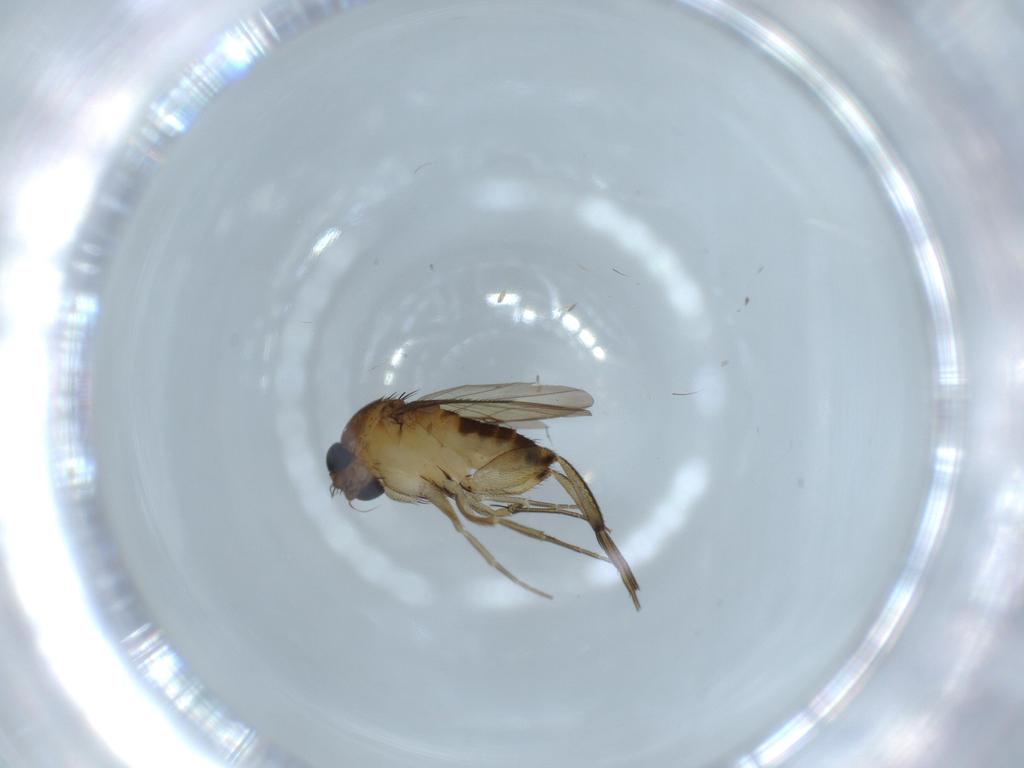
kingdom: Animalia
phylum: Arthropoda
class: Insecta
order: Diptera
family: Phoridae
